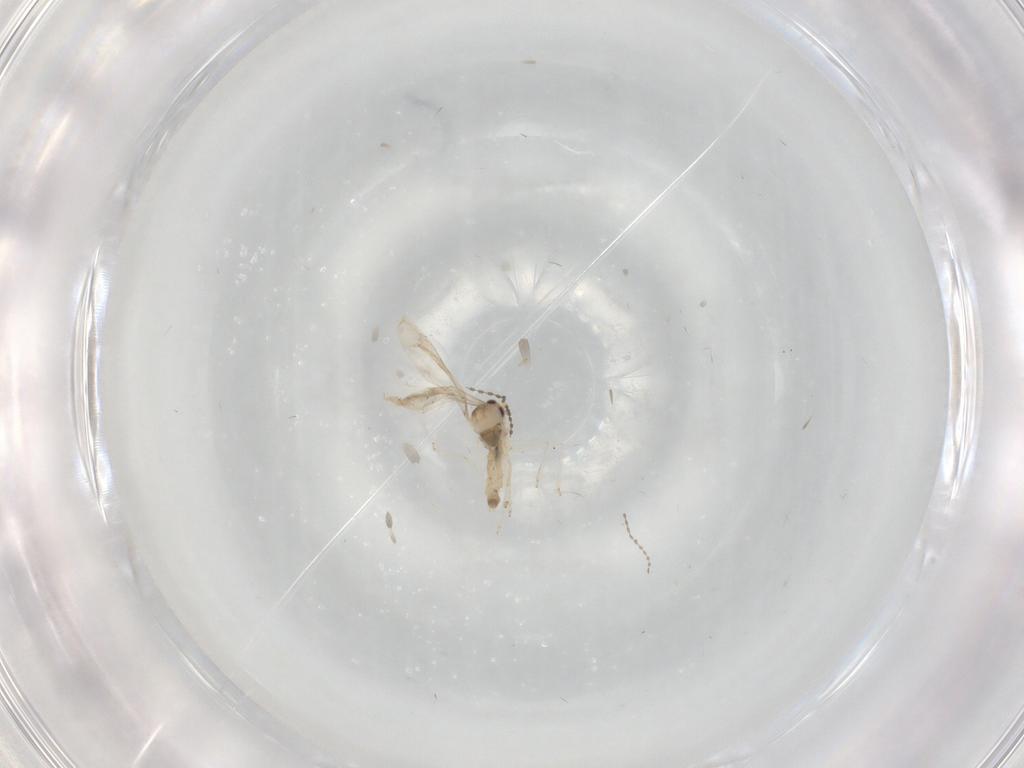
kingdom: Animalia
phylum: Arthropoda
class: Insecta
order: Diptera
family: Cecidomyiidae
